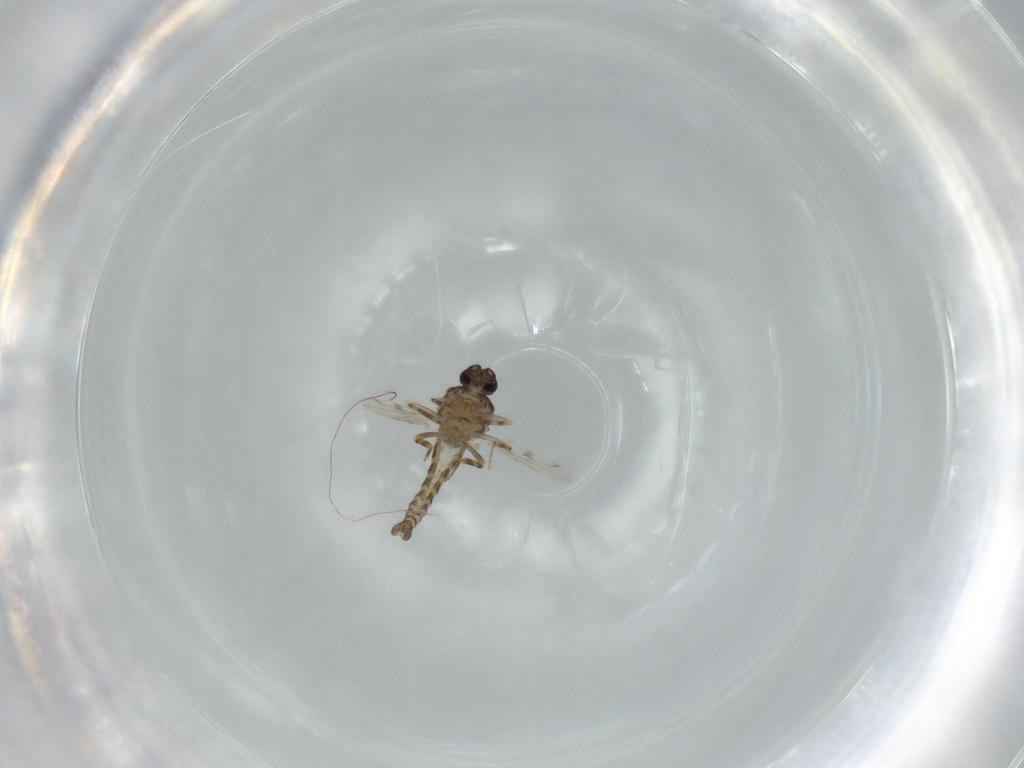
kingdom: Animalia
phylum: Arthropoda
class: Insecta
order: Diptera
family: Ceratopogonidae
